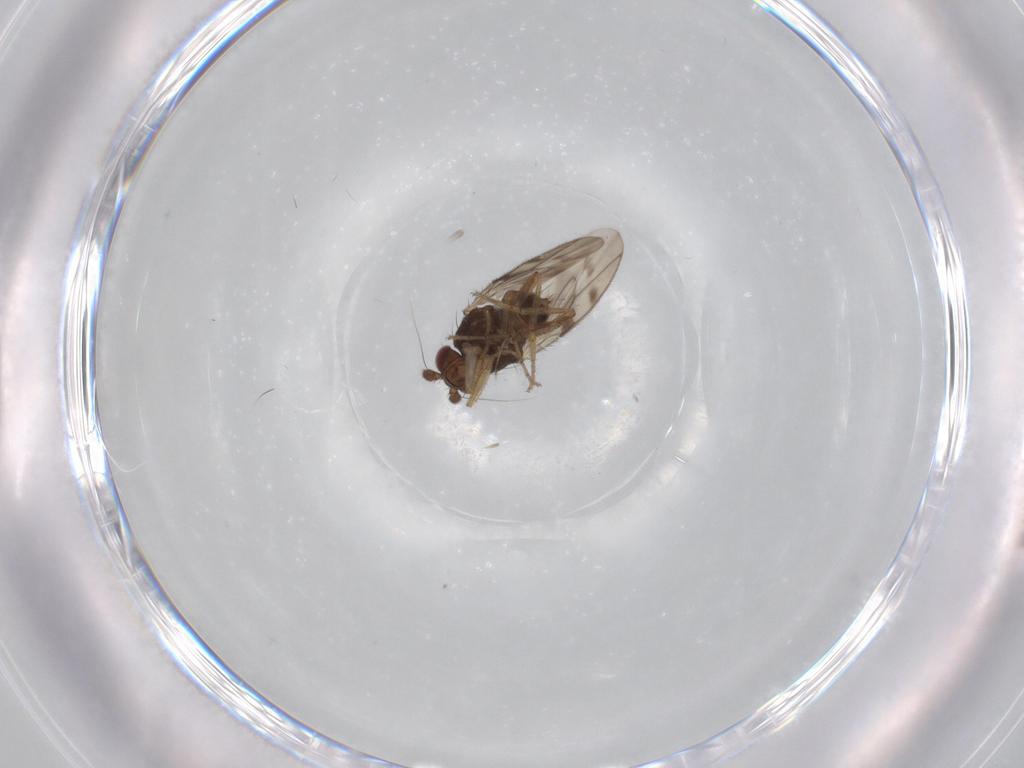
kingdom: Animalia
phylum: Arthropoda
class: Insecta
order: Diptera
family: Sphaeroceridae
